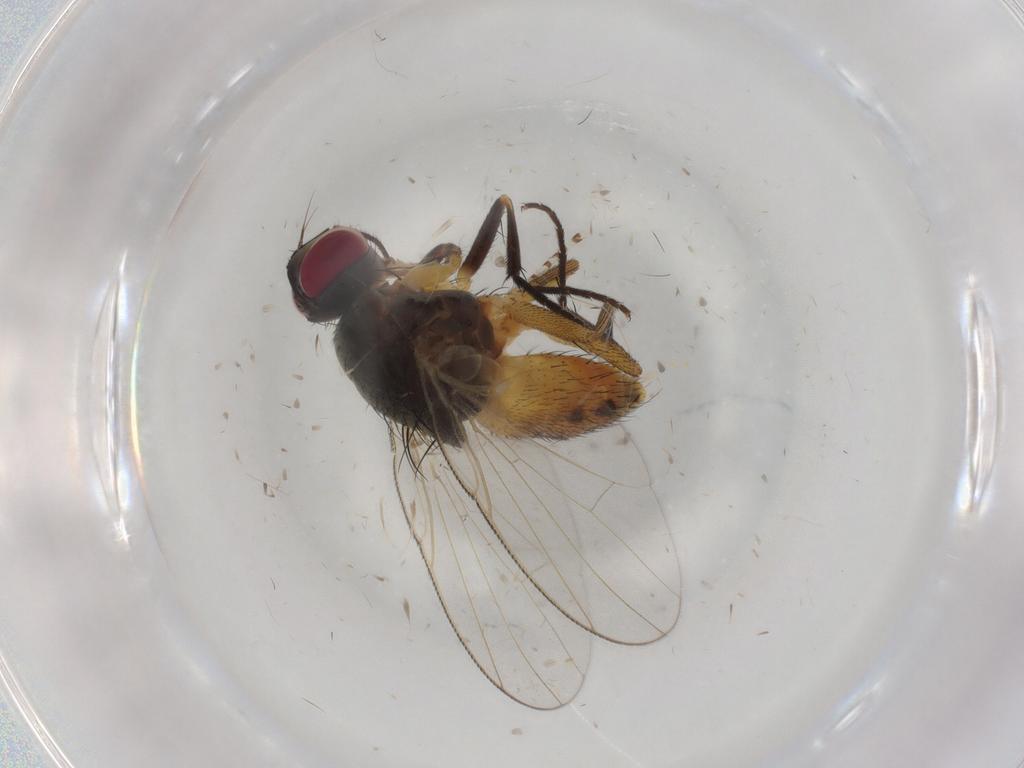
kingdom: Animalia
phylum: Arthropoda
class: Insecta
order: Diptera
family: Muscidae
